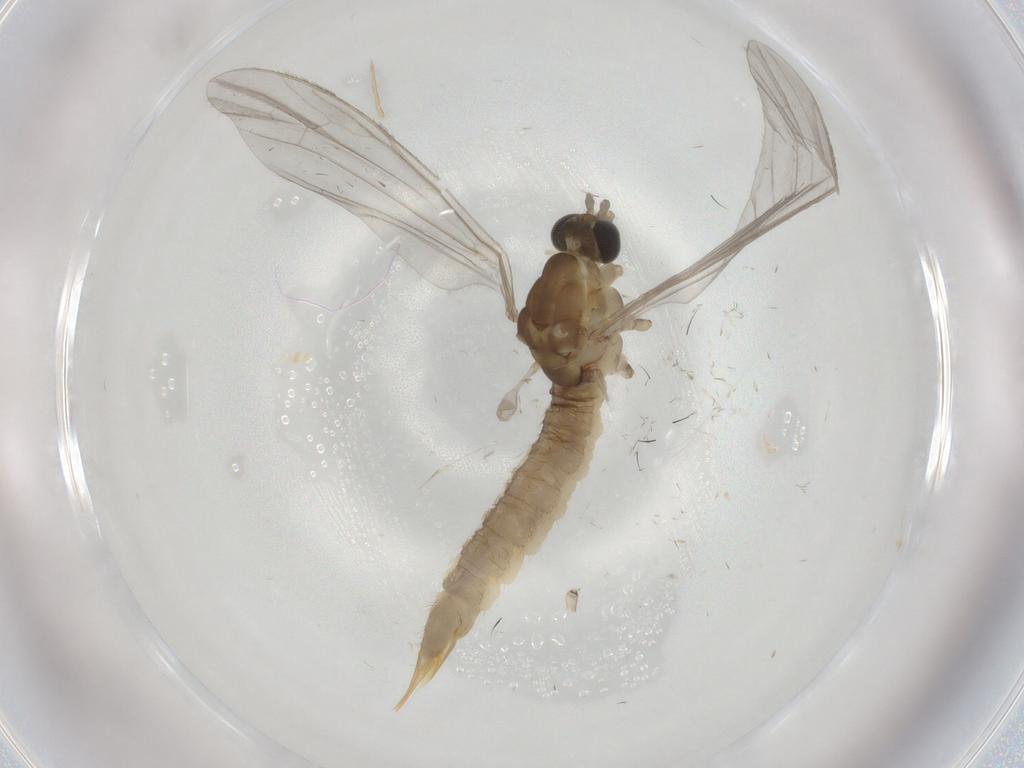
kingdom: Animalia
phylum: Arthropoda
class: Insecta
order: Diptera
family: Limoniidae
